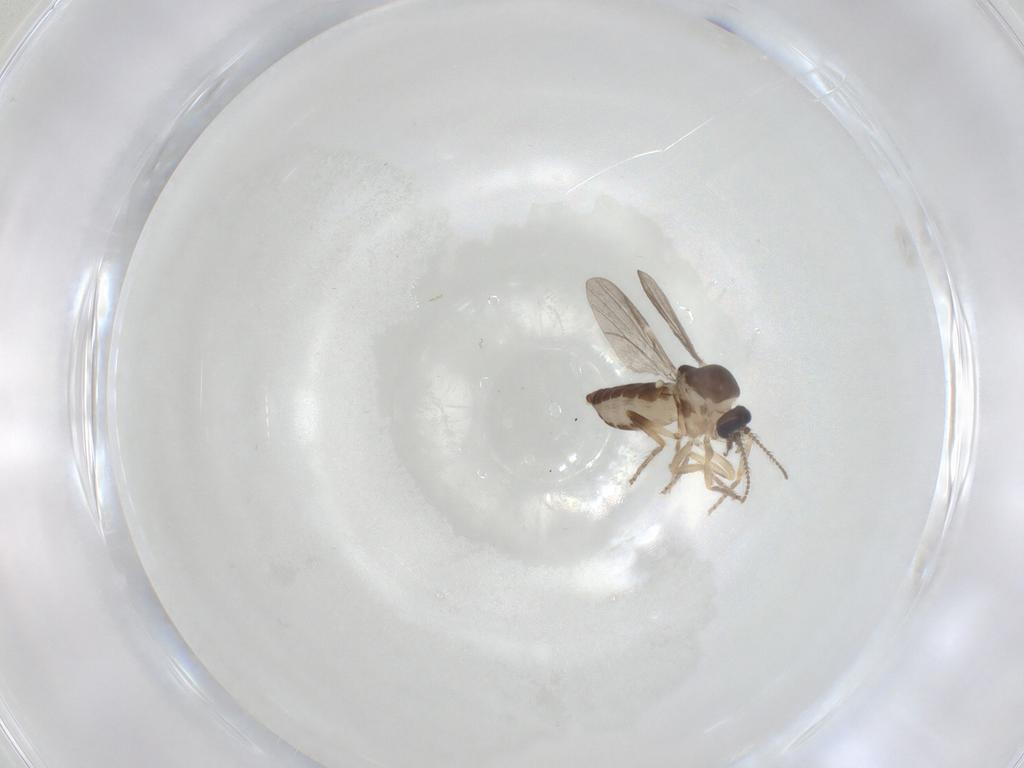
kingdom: Animalia
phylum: Arthropoda
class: Insecta
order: Diptera
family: Ceratopogonidae
